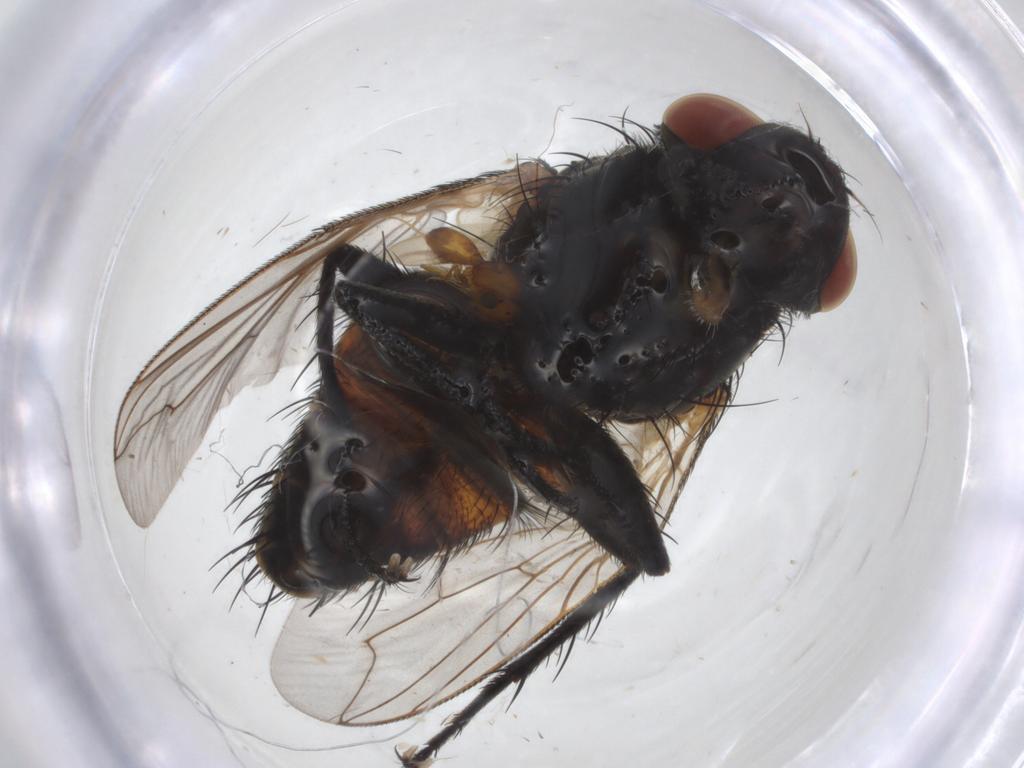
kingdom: Animalia
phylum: Arthropoda
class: Insecta
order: Diptera
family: Sarcophagidae
